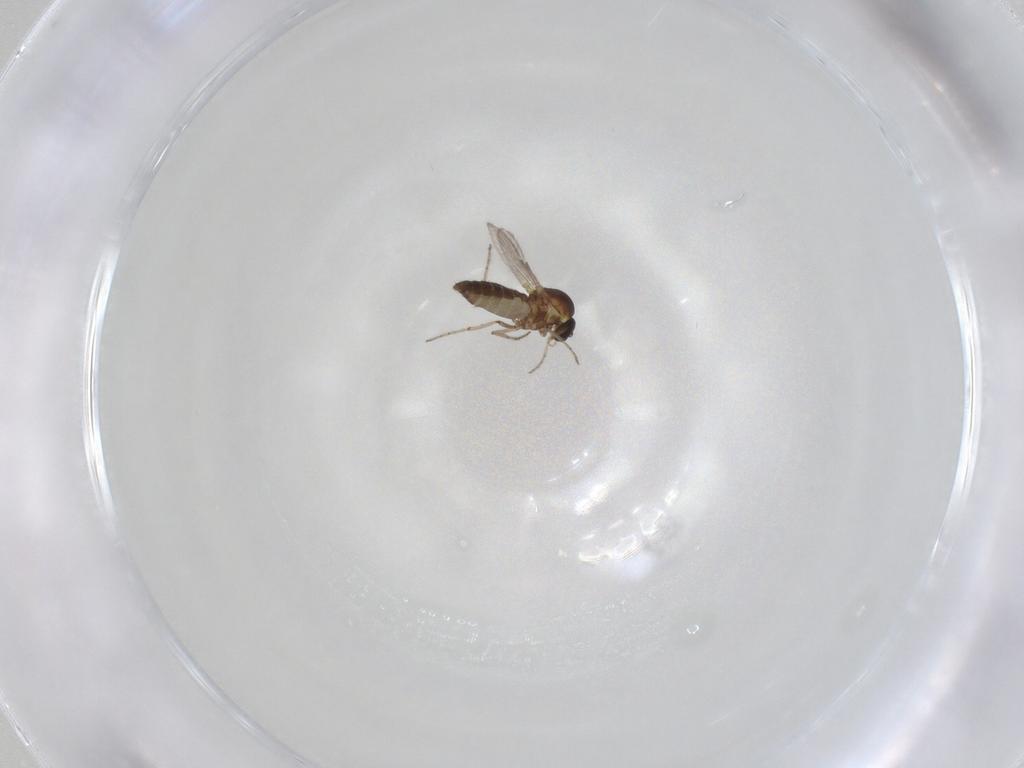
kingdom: Animalia
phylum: Arthropoda
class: Insecta
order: Diptera
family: Ceratopogonidae
